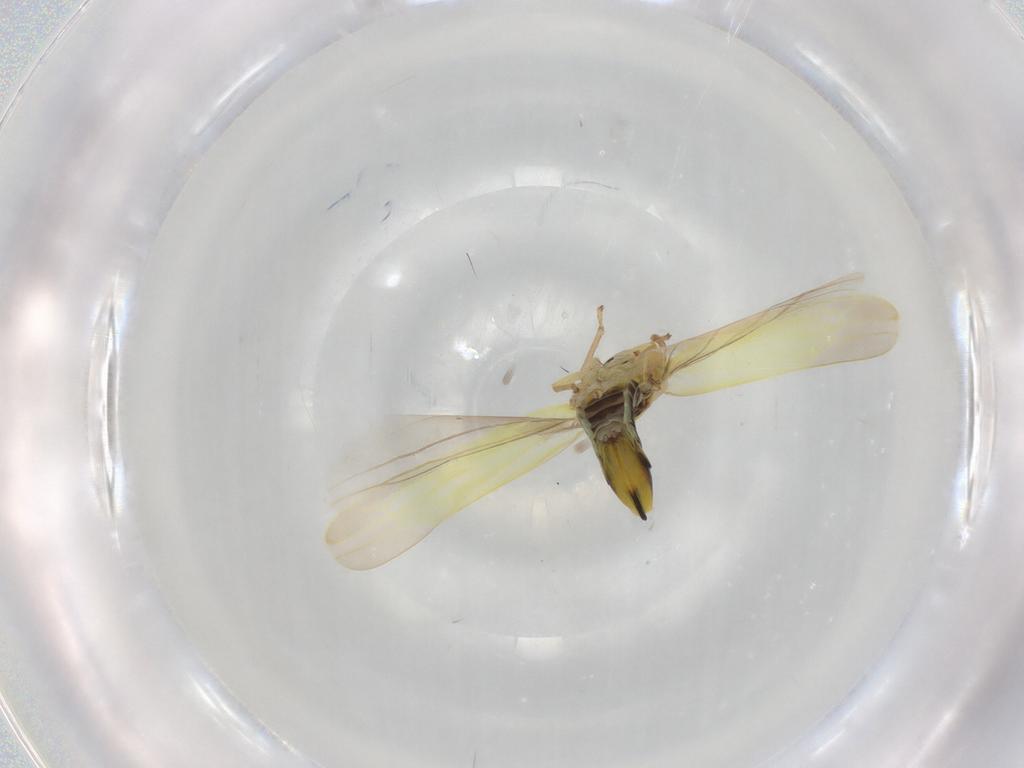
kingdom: Animalia
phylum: Arthropoda
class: Insecta
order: Hemiptera
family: Cicadellidae
